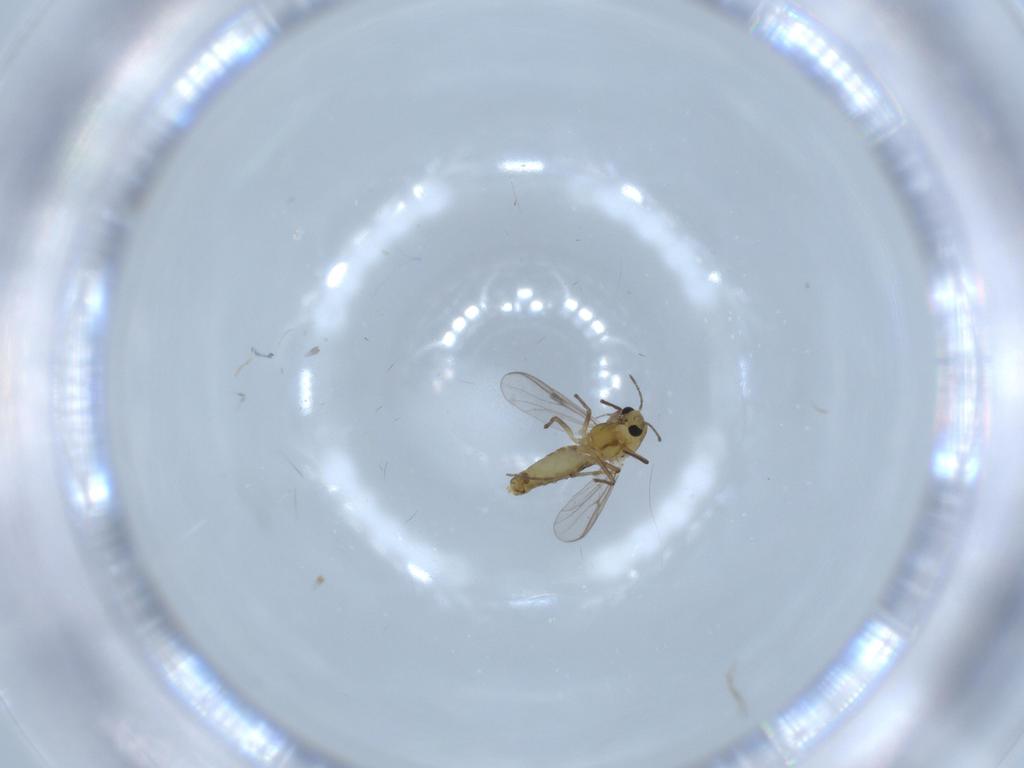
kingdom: Animalia
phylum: Arthropoda
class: Insecta
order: Diptera
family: Chironomidae
